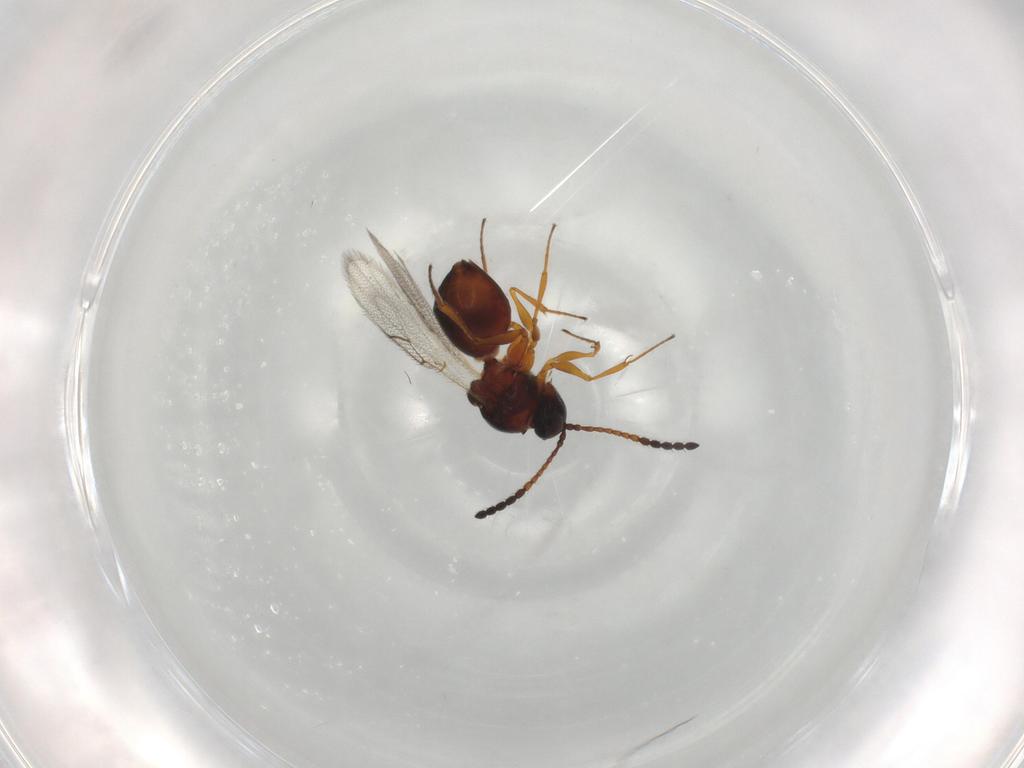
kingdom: Animalia
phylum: Arthropoda
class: Insecta
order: Hymenoptera
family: Figitidae
